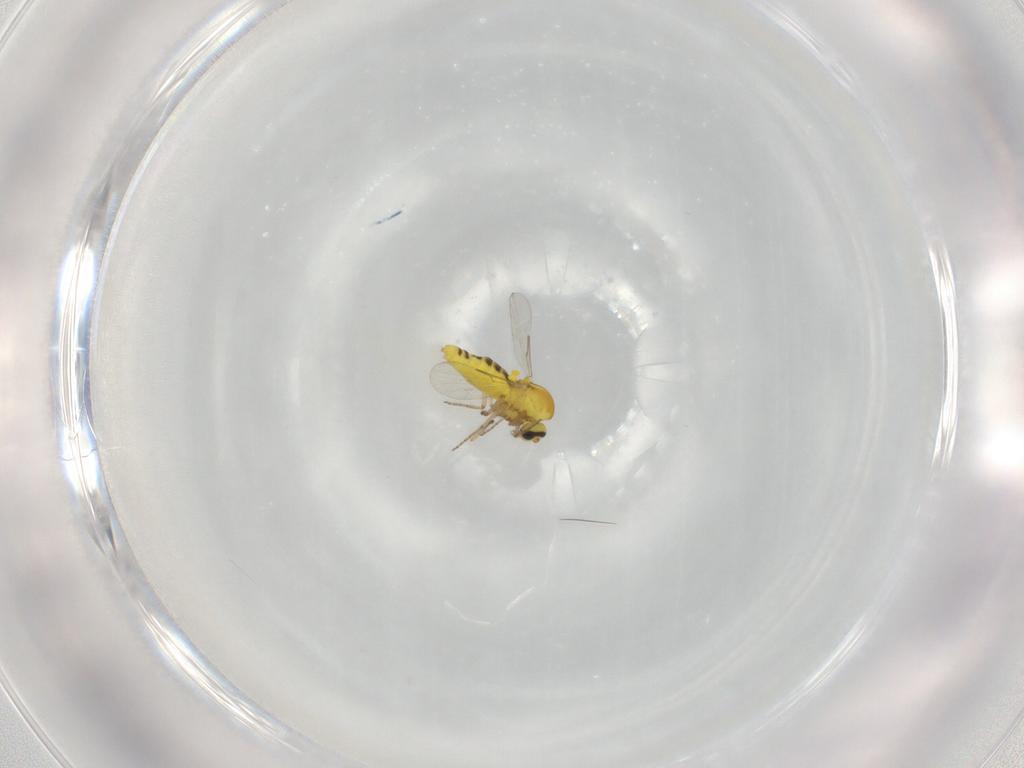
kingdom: Animalia
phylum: Arthropoda
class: Insecta
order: Diptera
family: Ceratopogonidae
